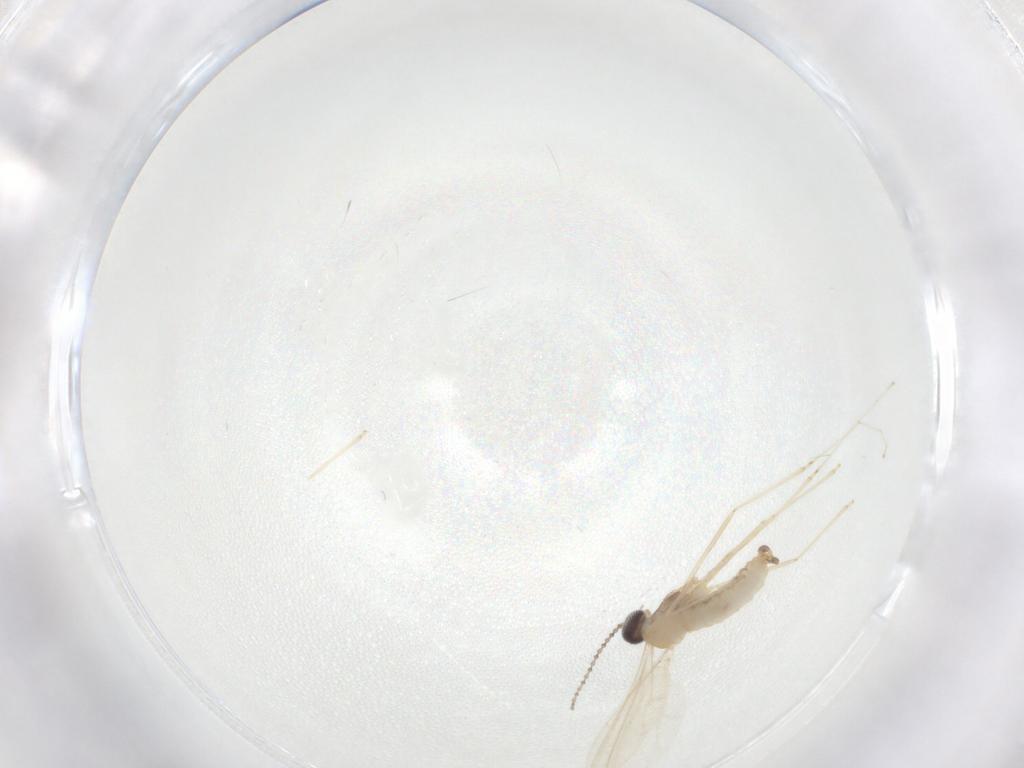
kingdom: Animalia
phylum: Arthropoda
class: Insecta
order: Diptera
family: Cecidomyiidae
